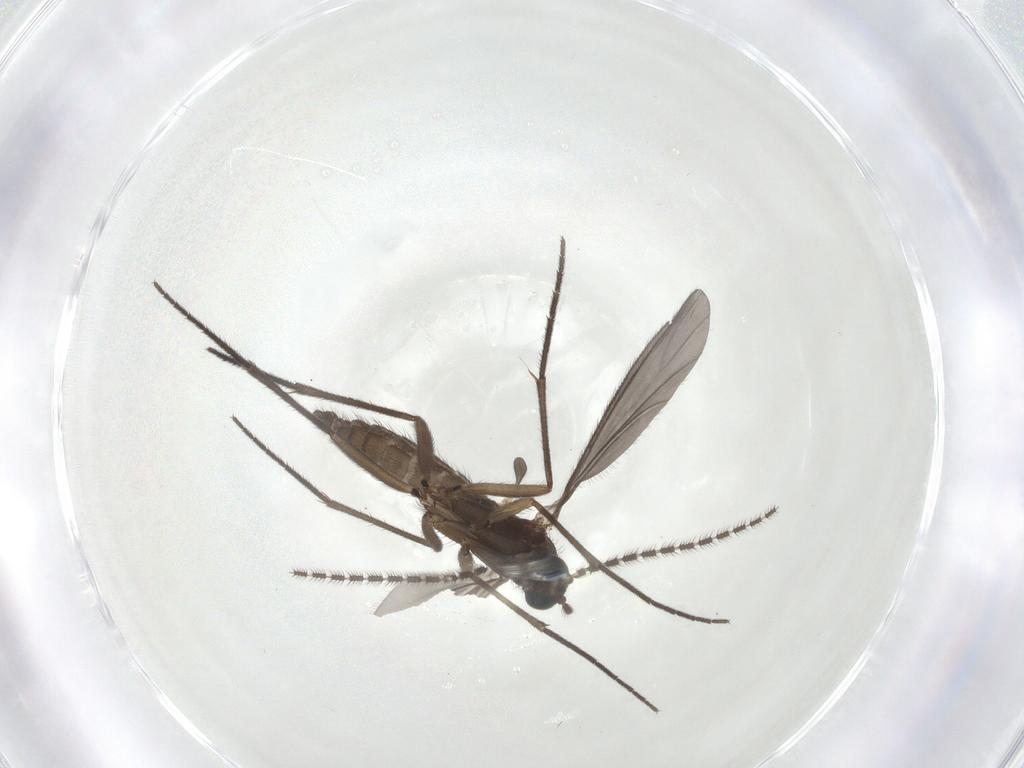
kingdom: Animalia
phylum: Arthropoda
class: Insecta
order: Diptera
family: Sciaridae
